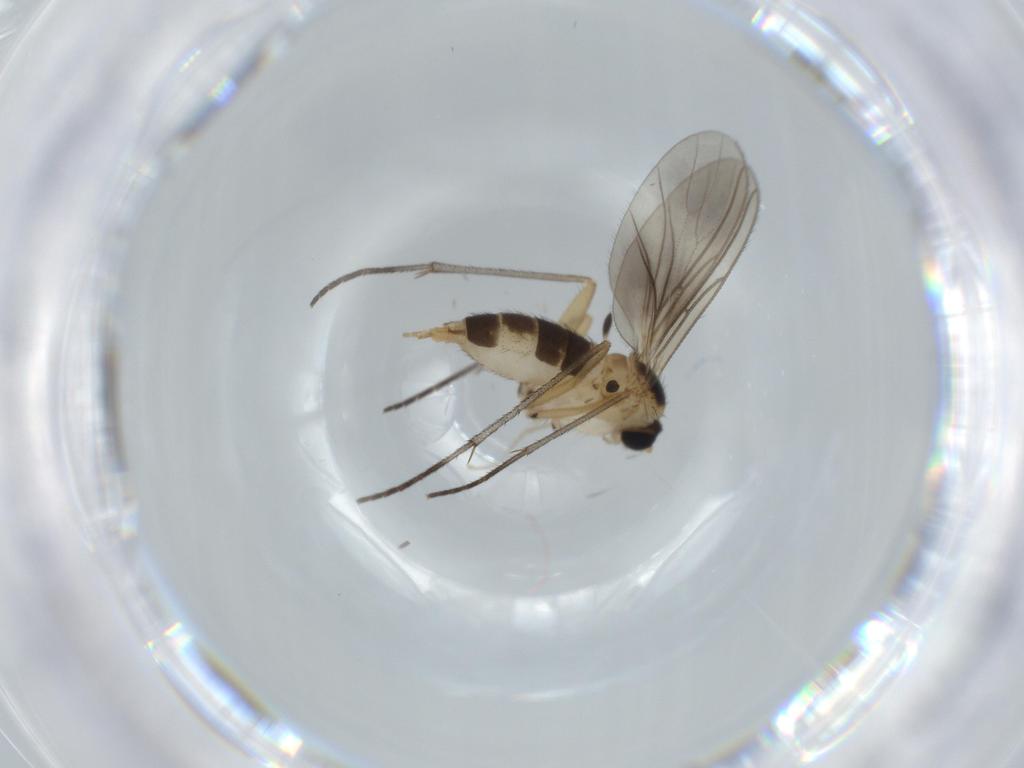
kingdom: Animalia
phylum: Arthropoda
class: Insecta
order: Diptera
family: Sciaridae
